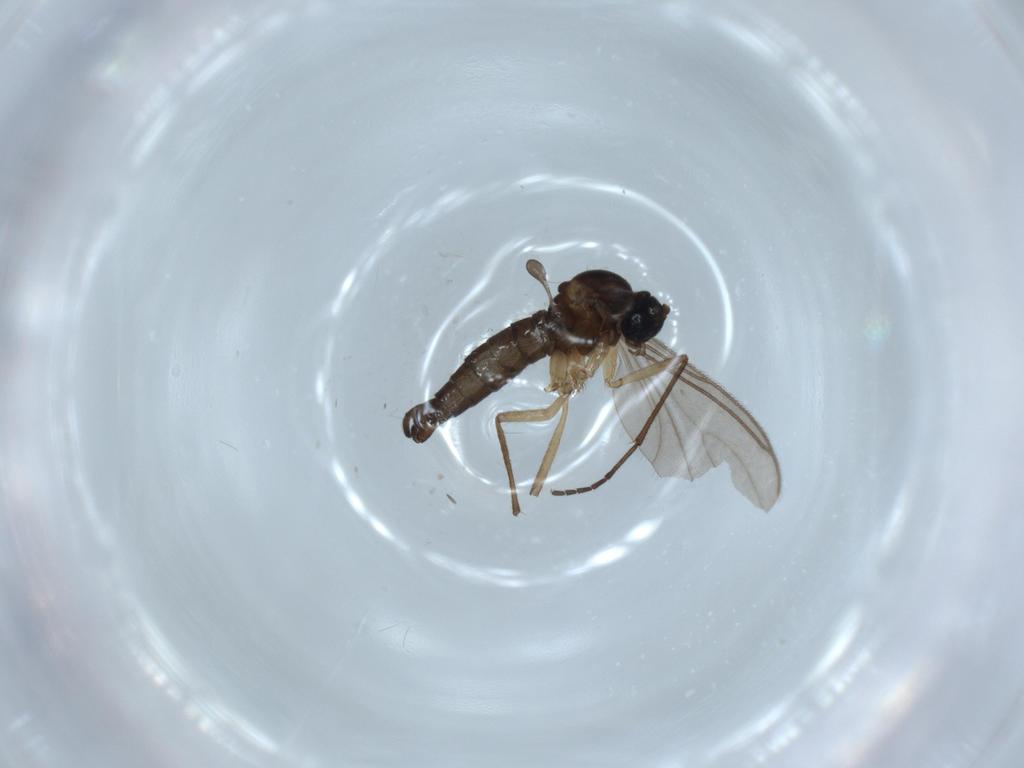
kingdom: Animalia
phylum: Arthropoda
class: Insecta
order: Diptera
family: Sciaridae
